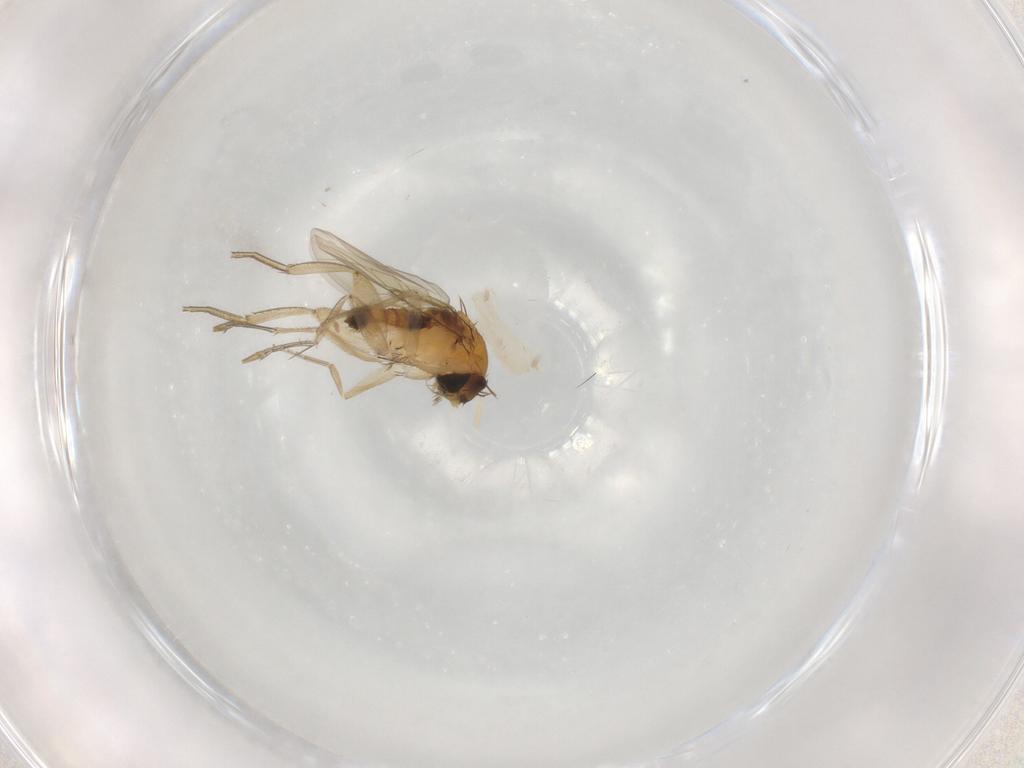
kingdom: Animalia
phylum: Arthropoda
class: Insecta
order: Diptera
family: Phoridae
